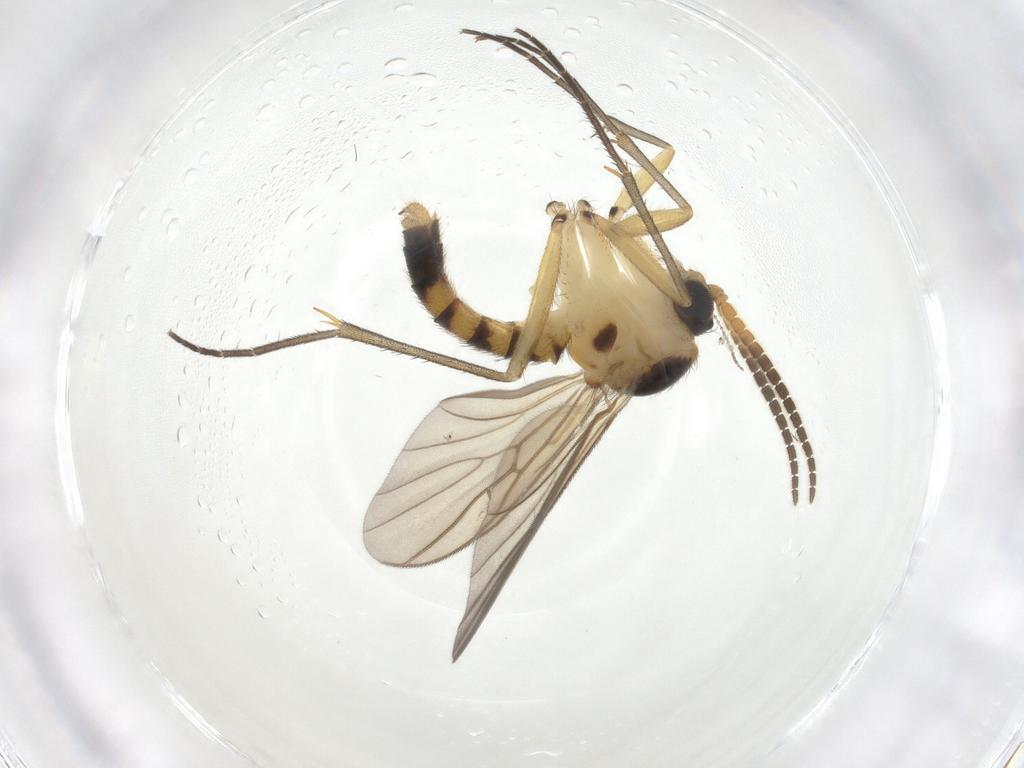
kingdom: Animalia
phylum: Arthropoda
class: Insecta
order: Diptera
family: Mycetophilidae
